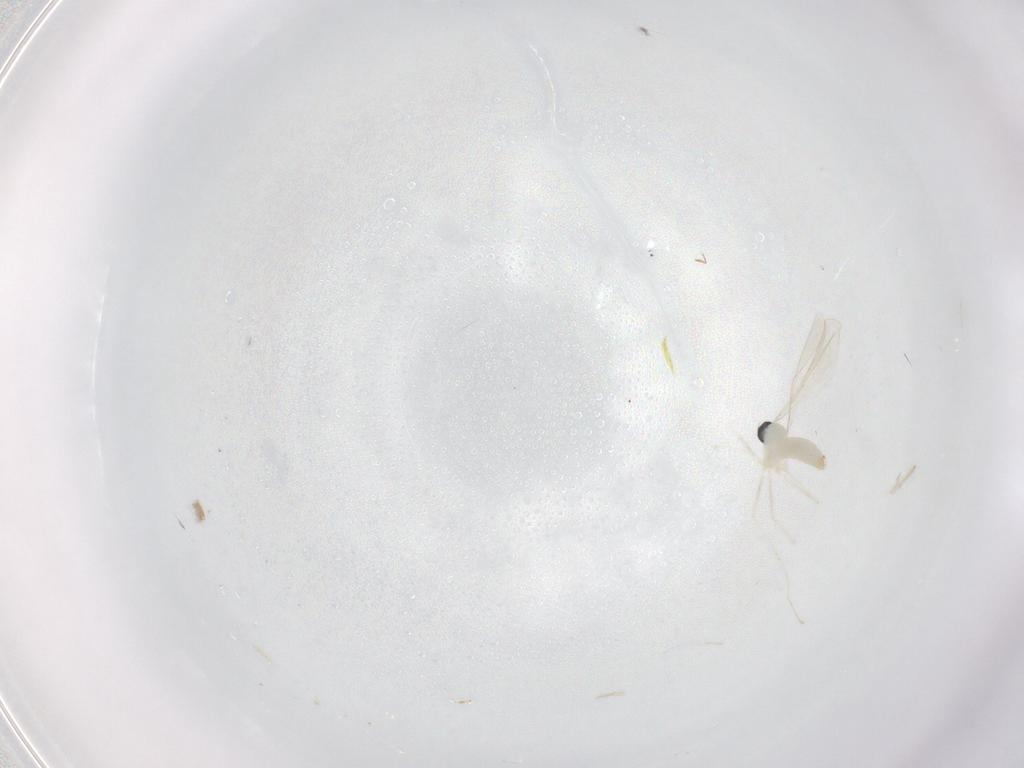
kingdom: Animalia
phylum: Arthropoda
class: Insecta
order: Diptera
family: Cecidomyiidae
